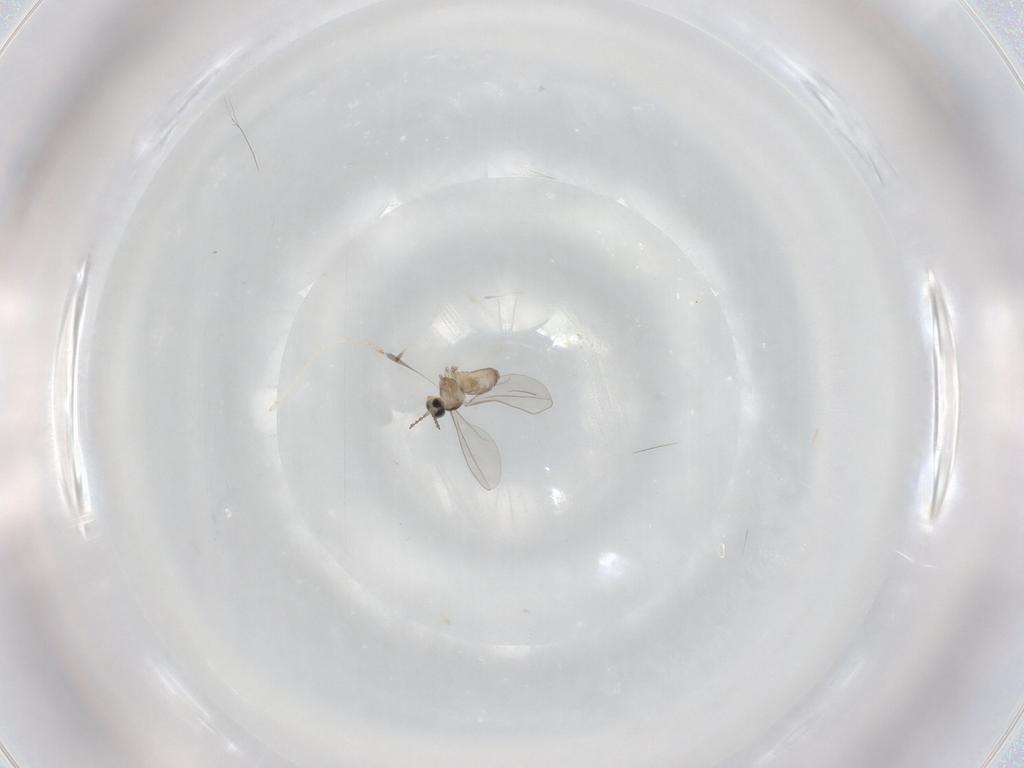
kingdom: Animalia
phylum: Arthropoda
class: Insecta
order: Diptera
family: Cecidomyiidae
